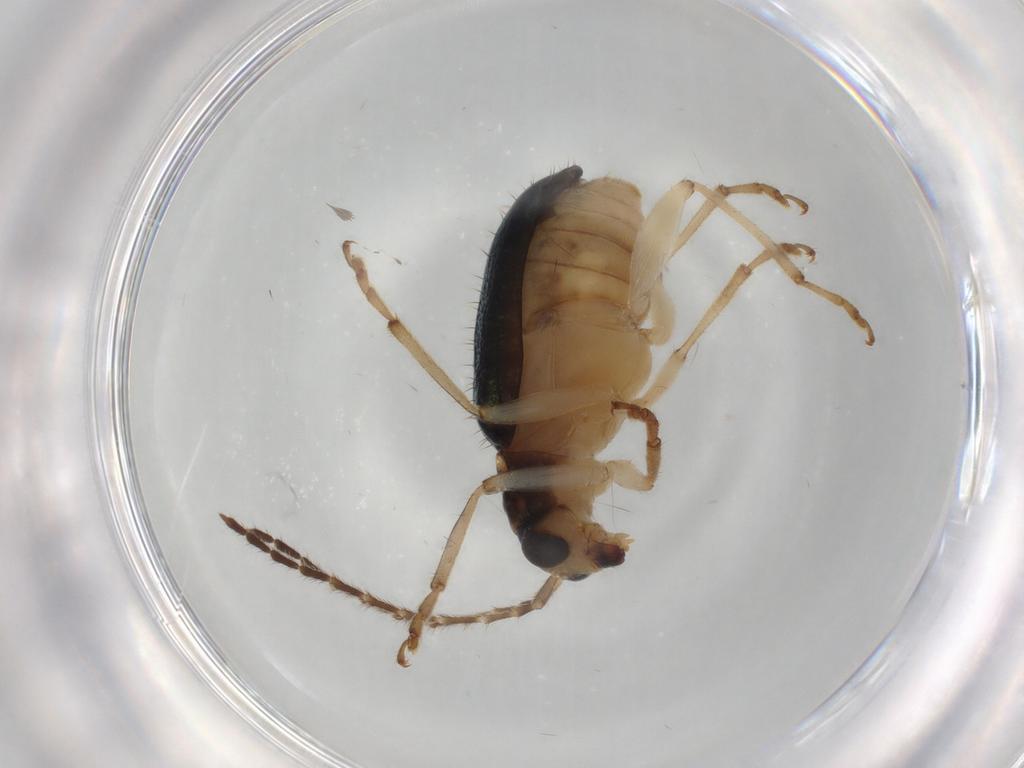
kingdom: Animalia
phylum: Arthropoda
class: Insecta
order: Coleoptera
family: Chrysomelidae
